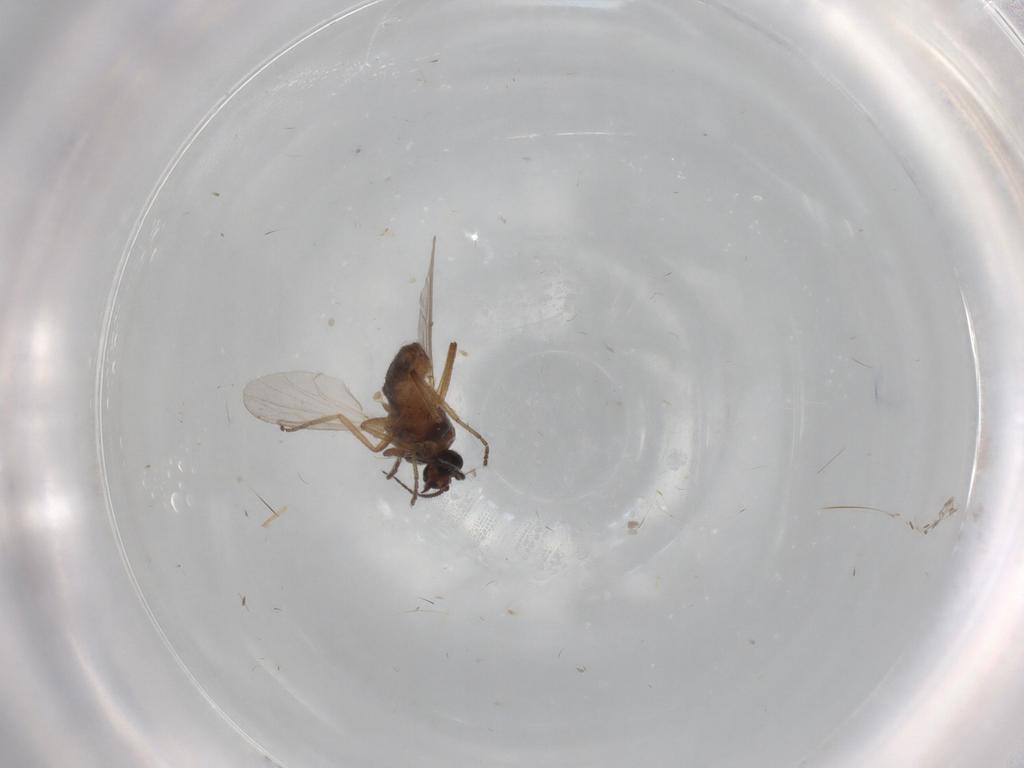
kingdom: Animalia
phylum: Arthropoda
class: Insecta
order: Diptera
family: Ceratopogonidae
